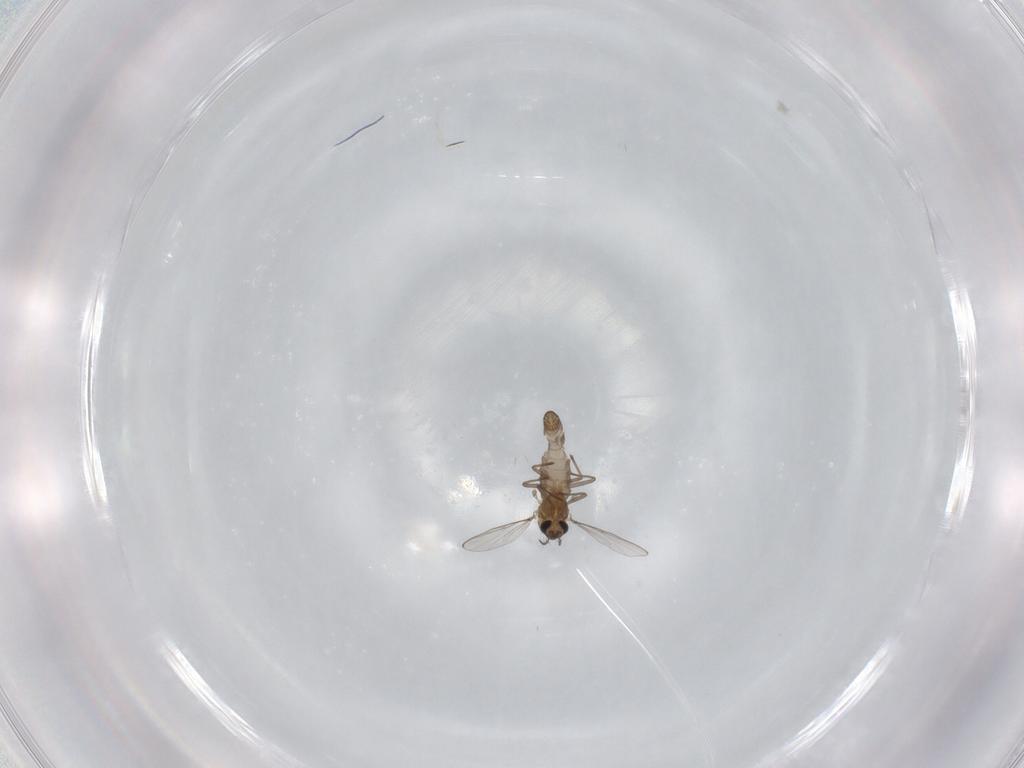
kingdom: Animalia
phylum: Arthropoda
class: Insecta
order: Diptera
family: Chironomidae
